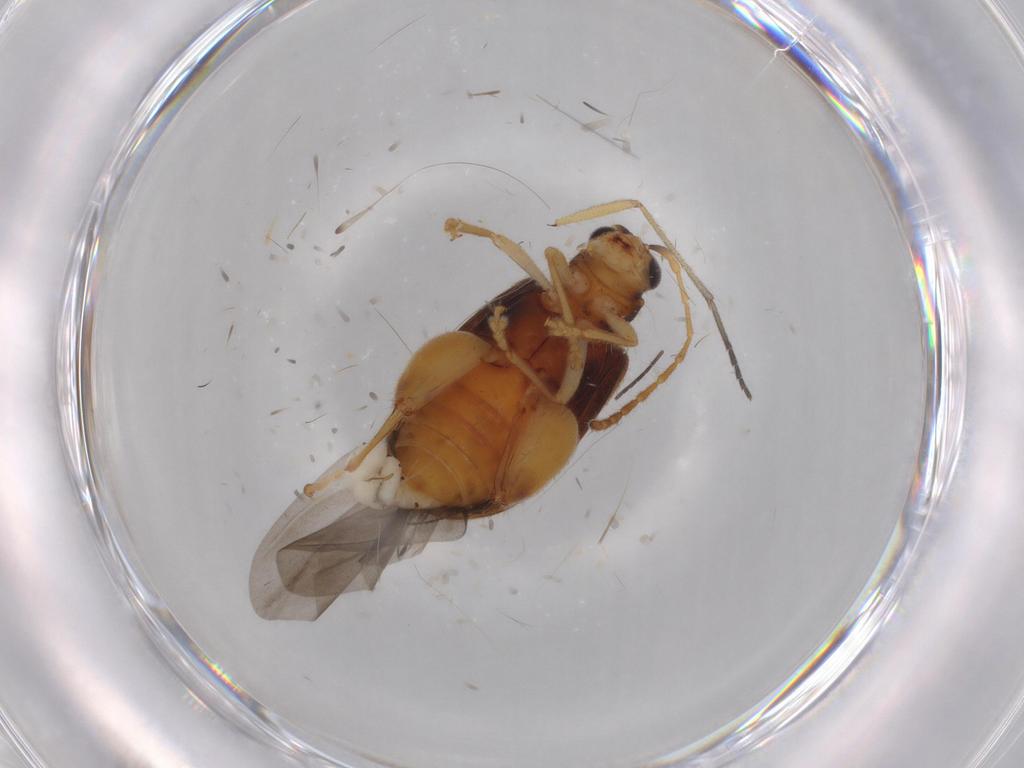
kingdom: Animalia
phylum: Arthropoda
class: Insecta
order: Coleoptera
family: Chrysomelidae
